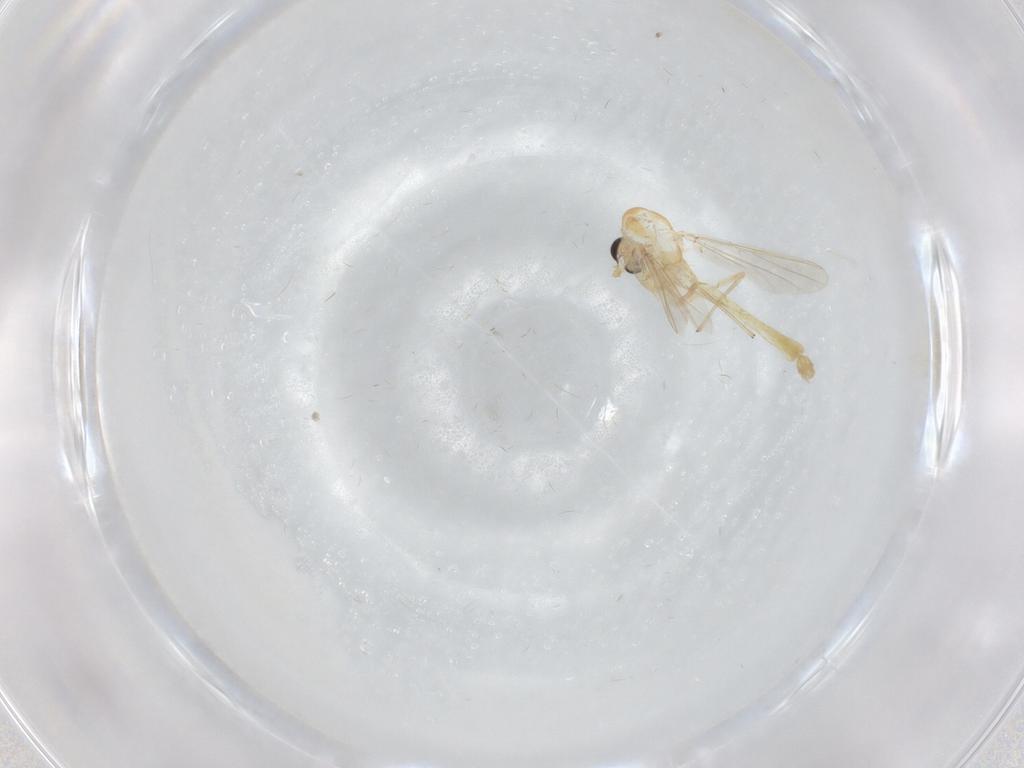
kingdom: Animalia
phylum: Arthropoda
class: Insecta
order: Diptera
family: Chironomidae
